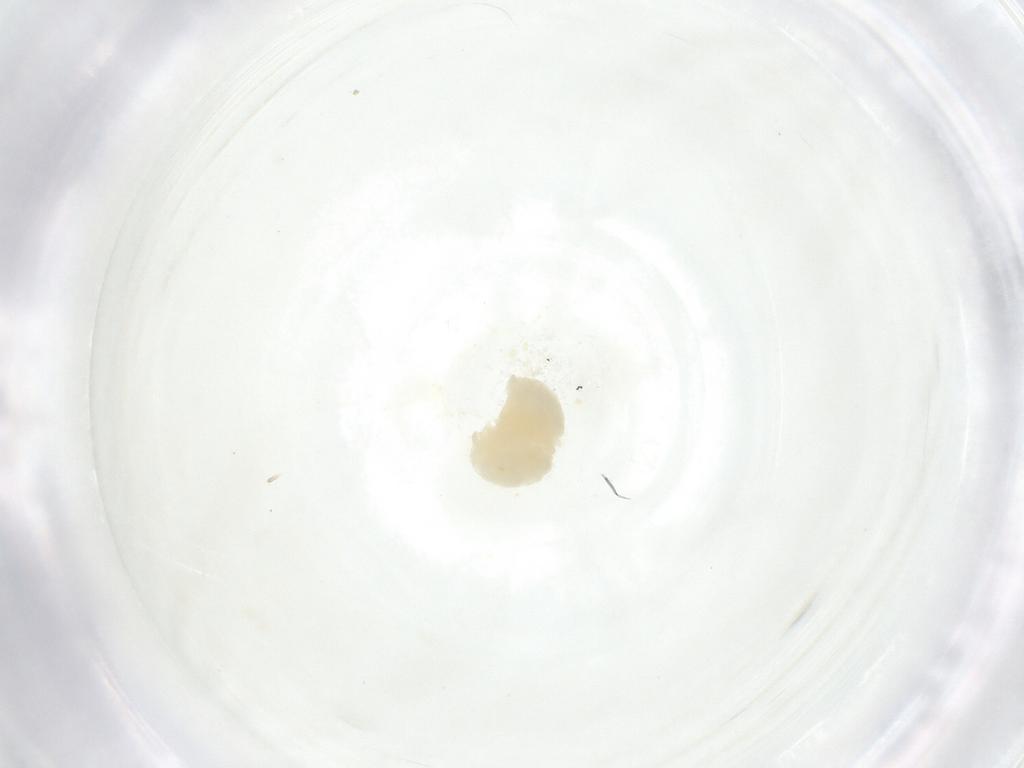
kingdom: Animalia
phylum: Arthropoda
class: Insecta
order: Hymenoptera
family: Eulophidae
